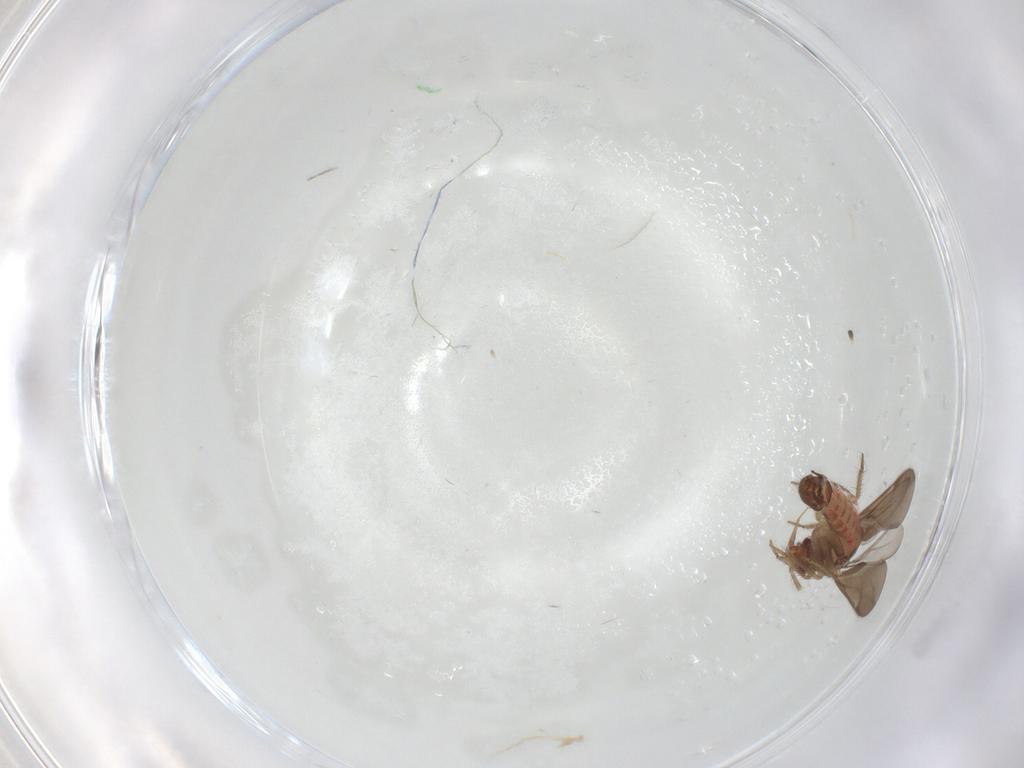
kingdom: Animalia
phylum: Arthropoda
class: Insecta
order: Hemiptera
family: Ceratocombidae
